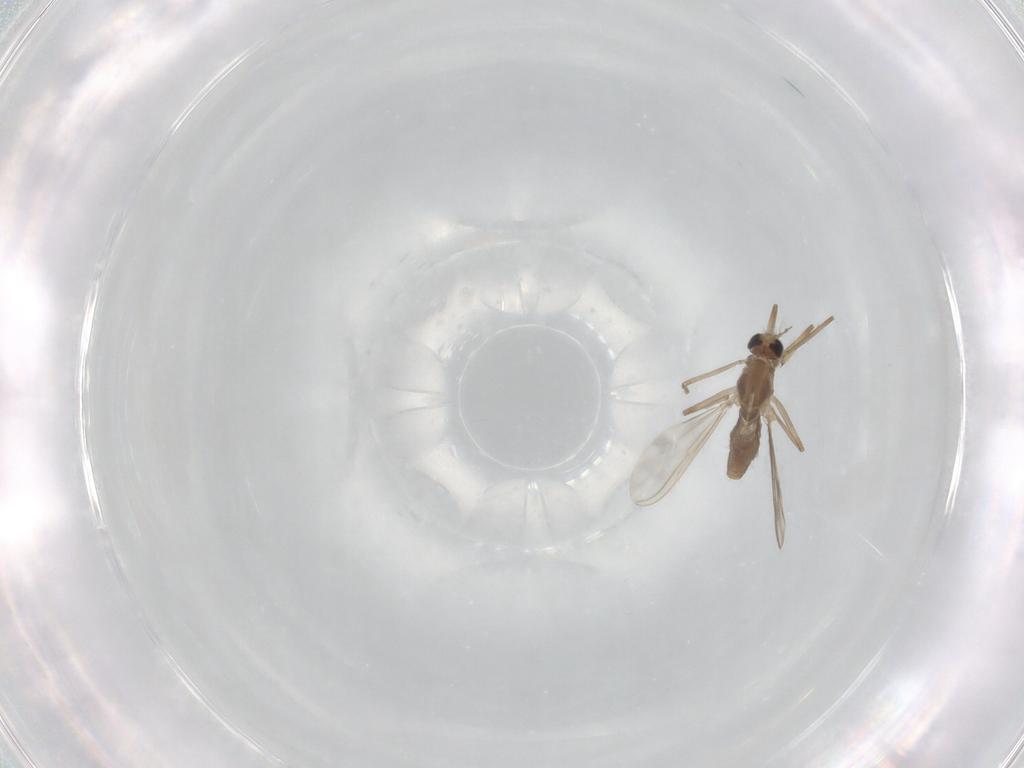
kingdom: Animalia
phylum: Arthropoda
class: Insecta
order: Diptera
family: Chironomidae
